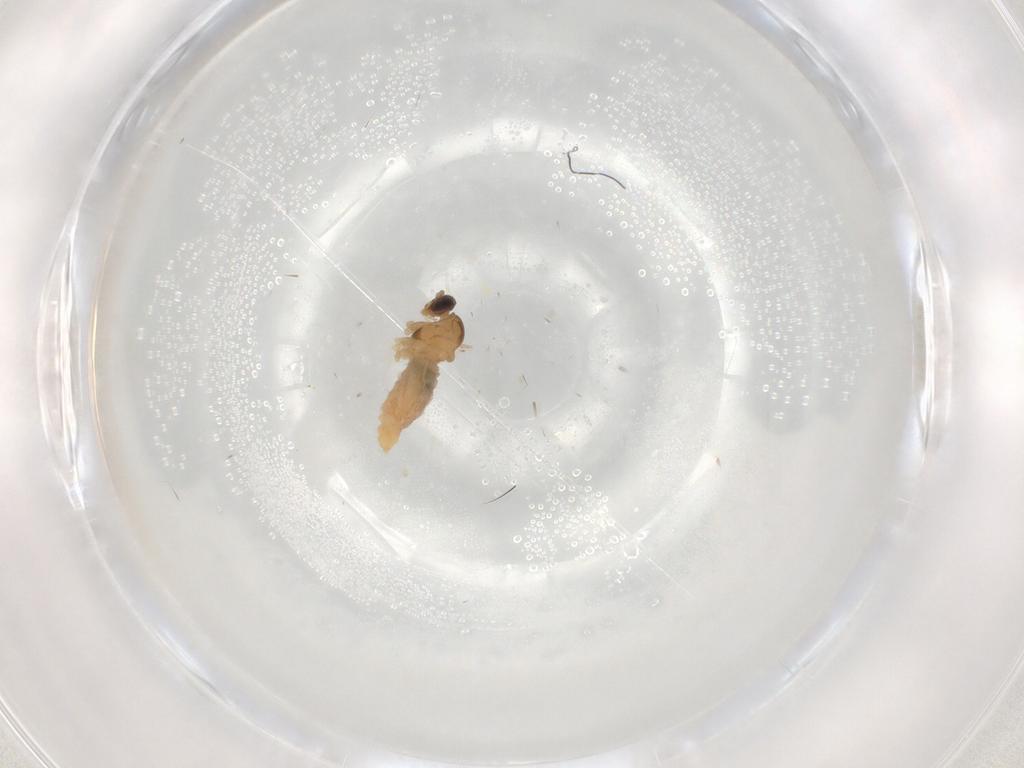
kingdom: Animalia
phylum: Arthropoda
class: Insecta
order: Diptera
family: Cecidomyiidae
